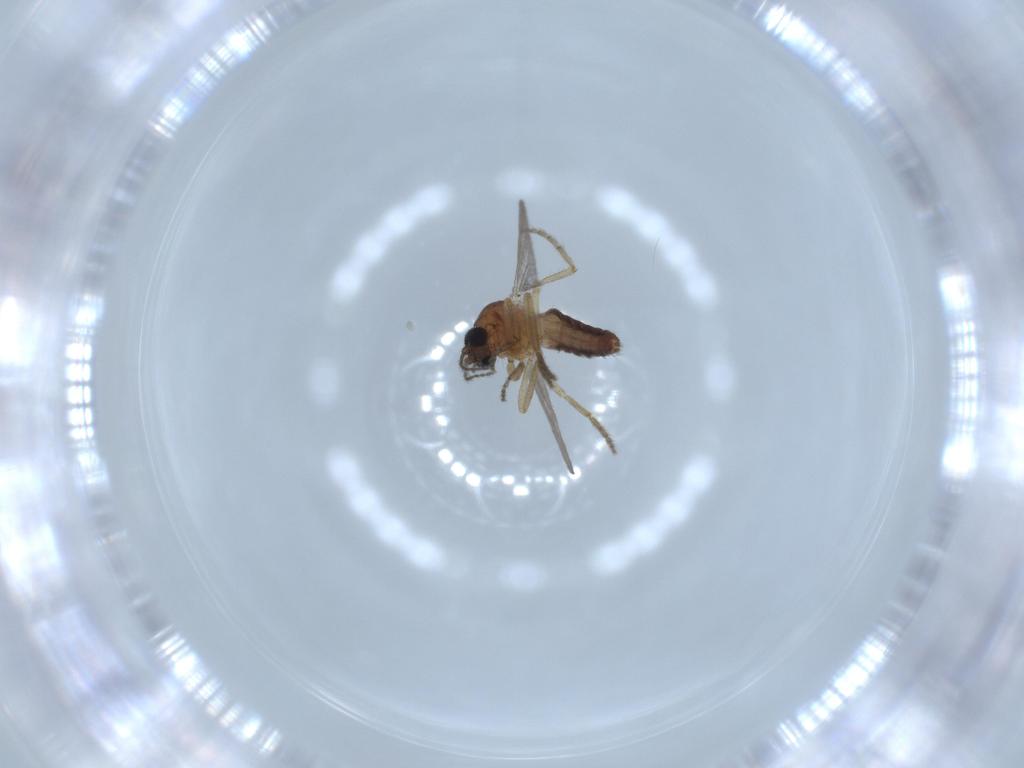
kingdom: Animalia
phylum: Arthropoda
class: Insecta
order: Diptera
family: Ceratopogonidae
